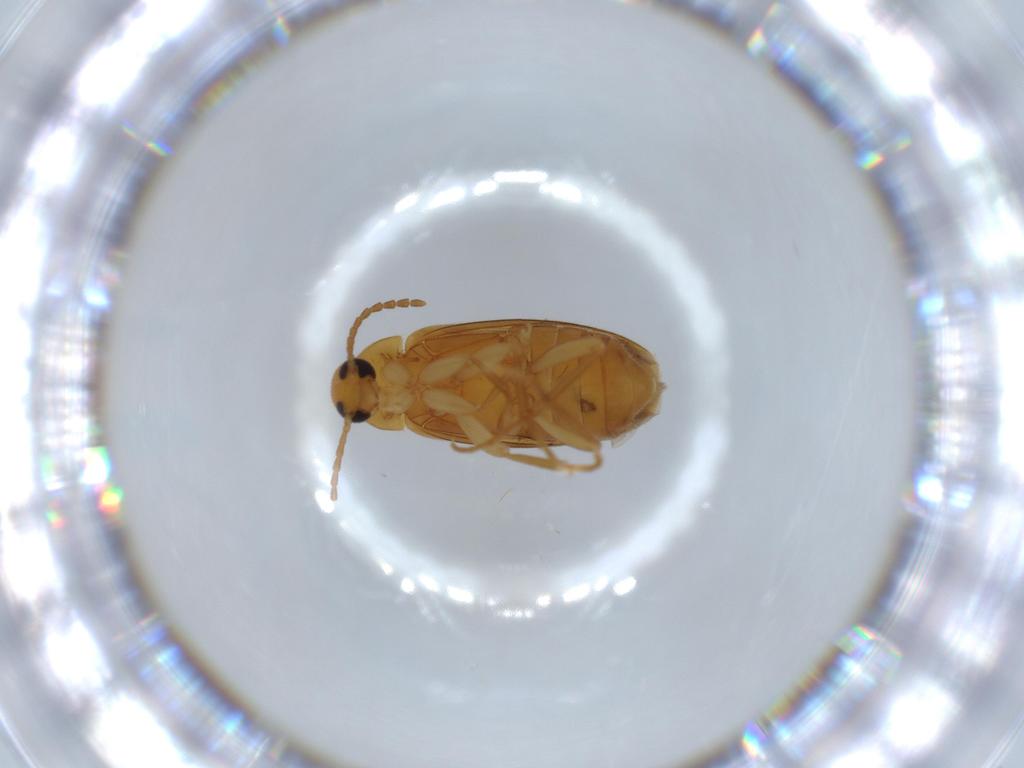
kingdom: Animalia
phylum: Arthropoda
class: Insecta
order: Coleoptera
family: Scraptiidae
